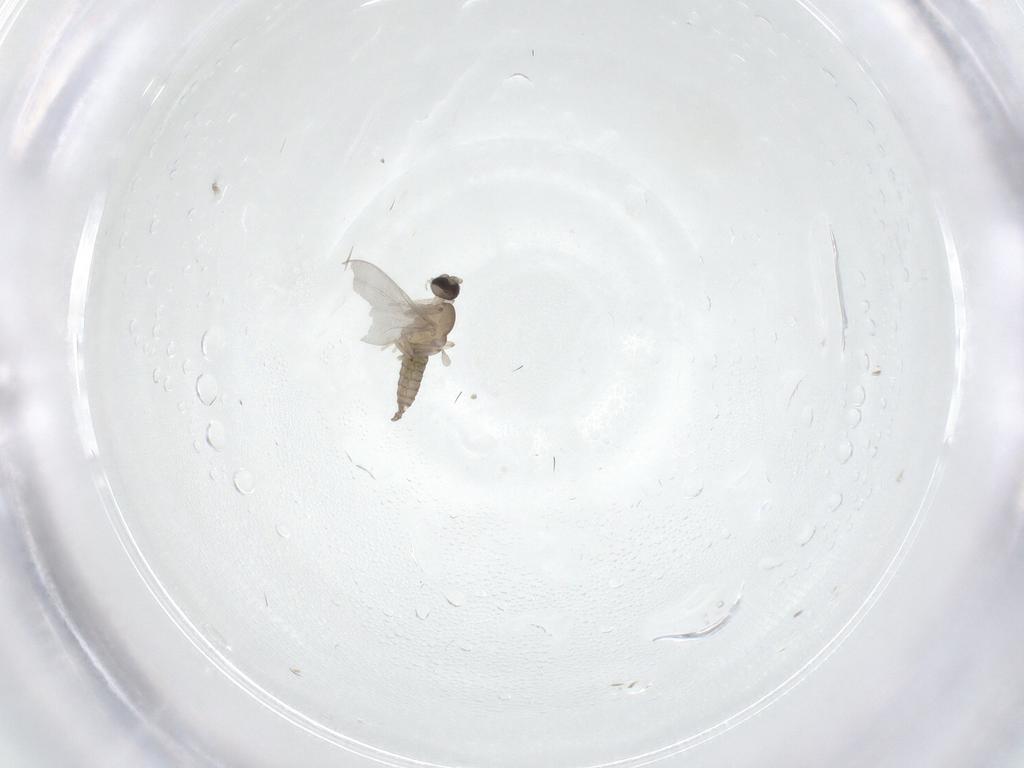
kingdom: Animalia
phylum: Arthropoda
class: Insecta
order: Diptera
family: Cecidomyiidae
